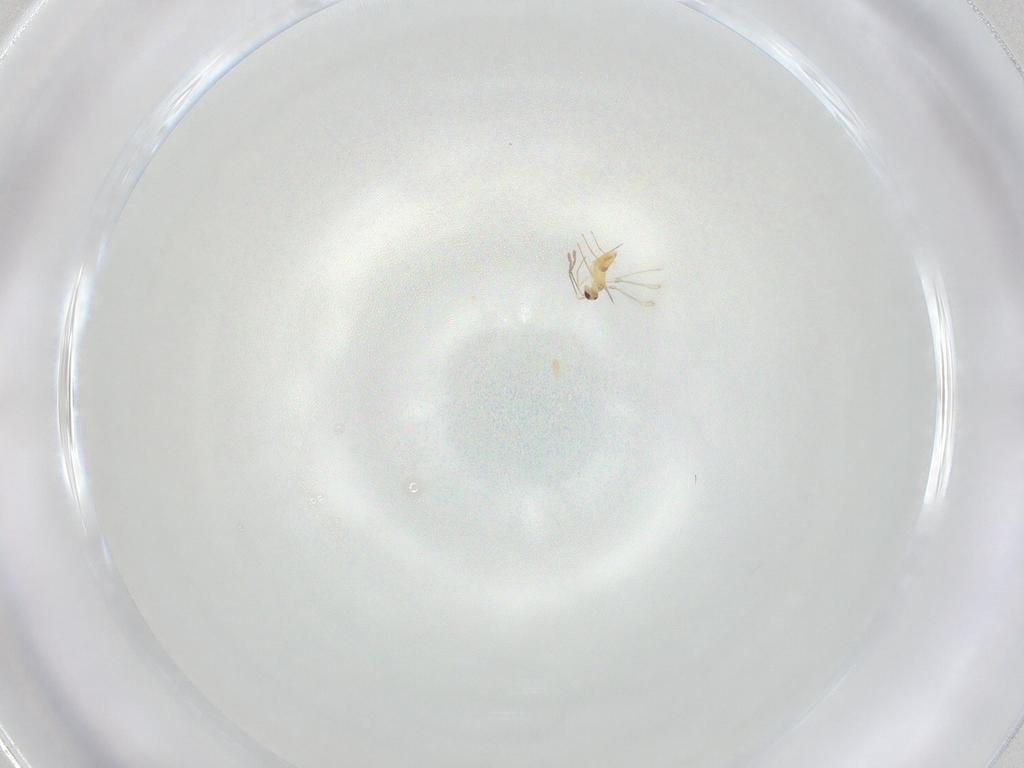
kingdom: Animalia
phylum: Arthropoda
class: Insecta
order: Hymenoptera
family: Mymaridae
